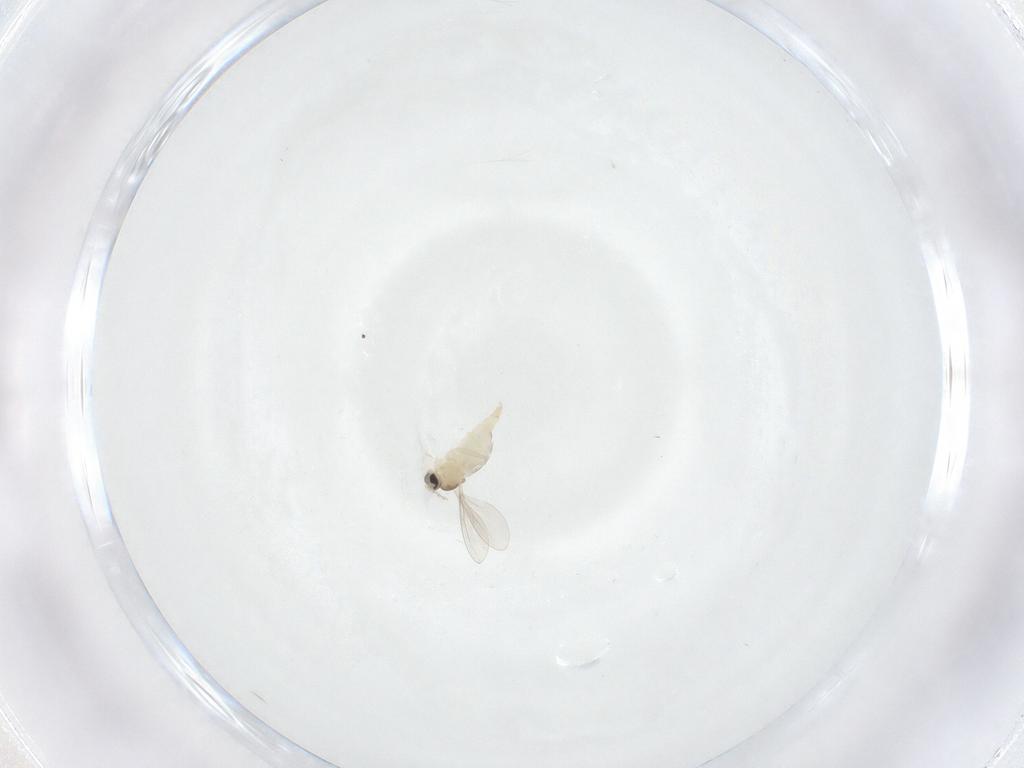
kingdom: Animalia
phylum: Arthropoda
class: Insecta
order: Diptera
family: Cecidomyiidae
